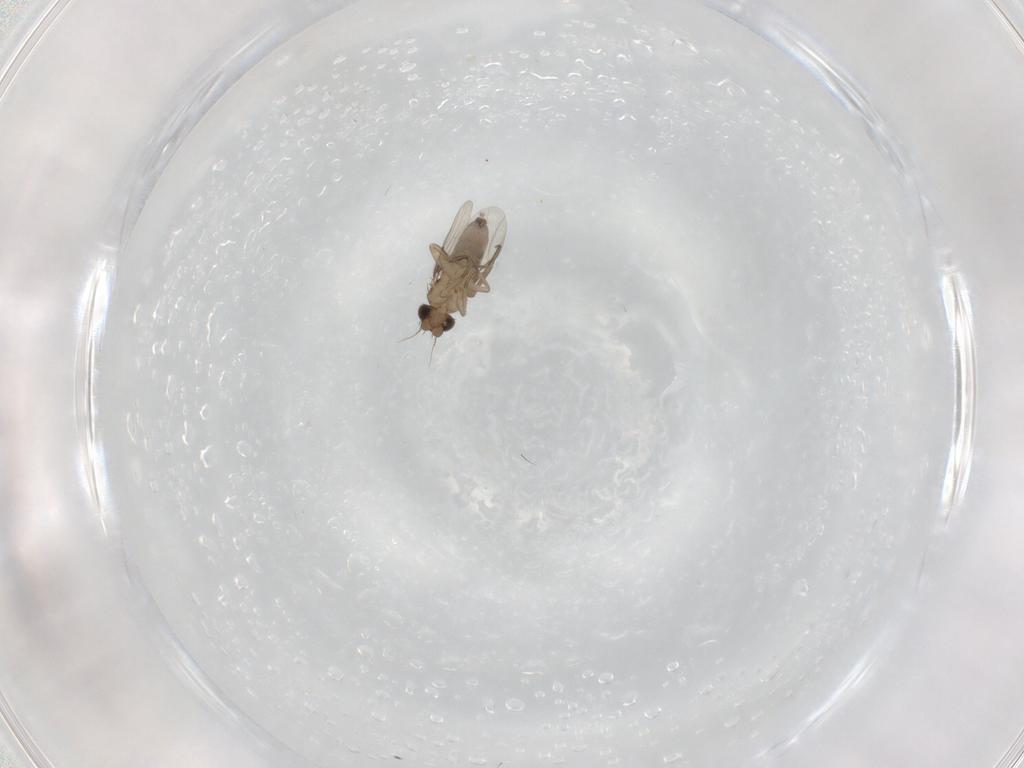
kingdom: Animalia
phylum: Arthropoda
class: Insecta
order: Diptera
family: Phoridae
